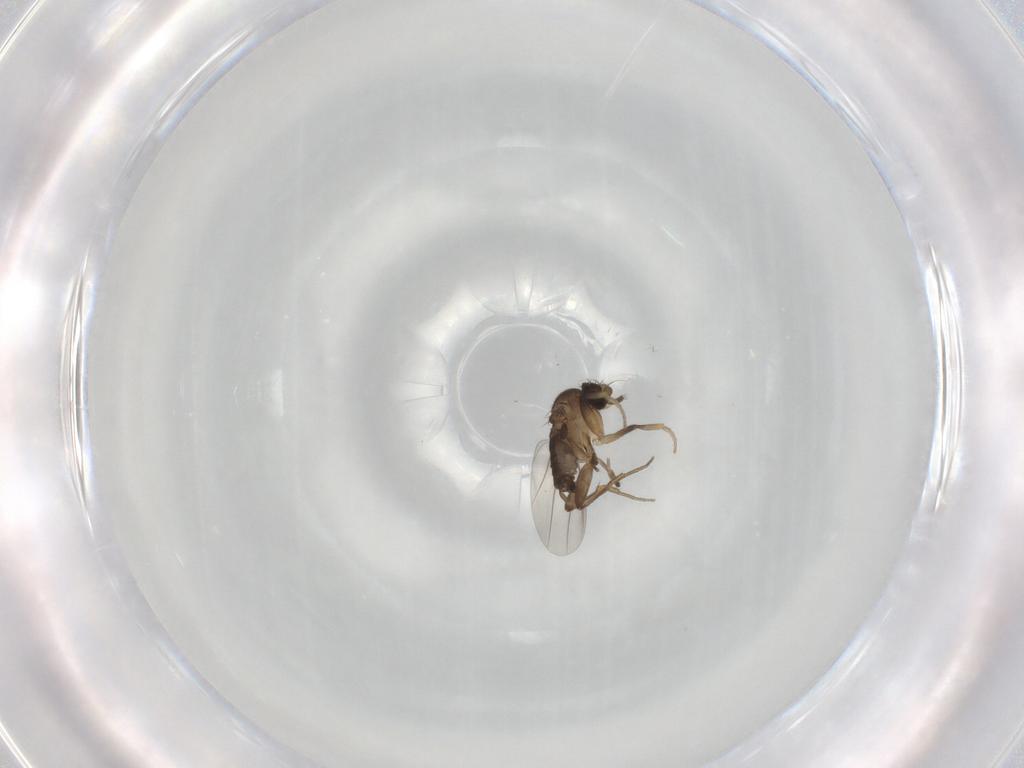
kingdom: Animalia
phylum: Arthropoda
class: Insecta
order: Diptera
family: Phoridae
